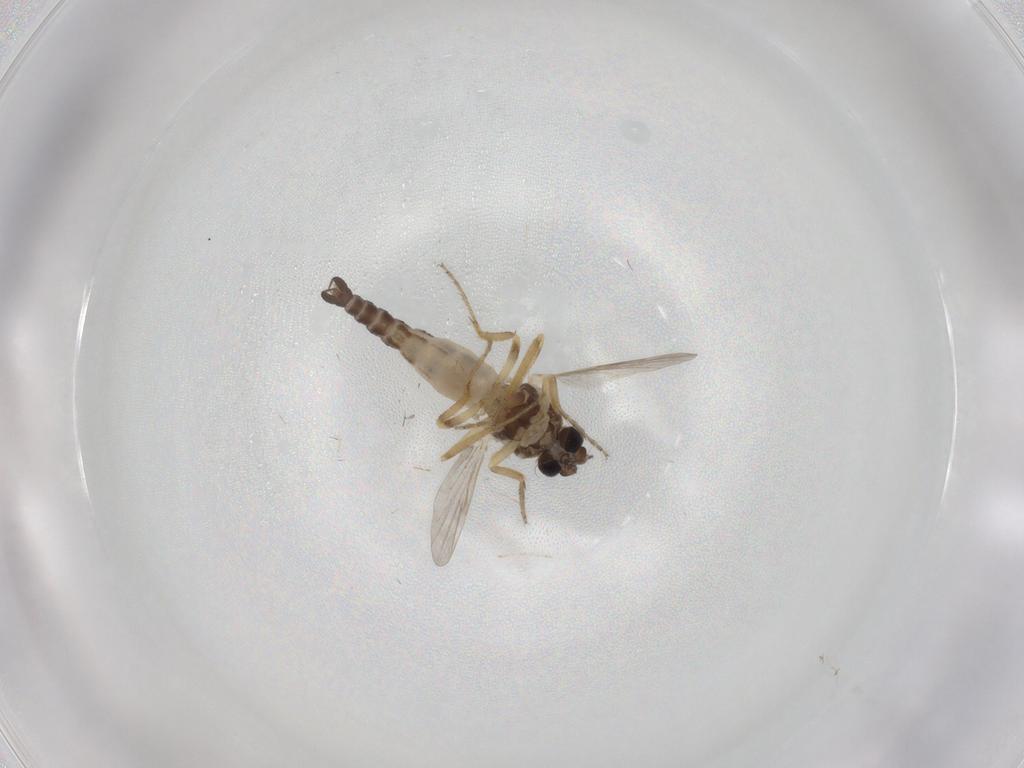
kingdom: Animalia
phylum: Arthropoda
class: Insecta
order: Diptera
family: Ceratopogonidae
